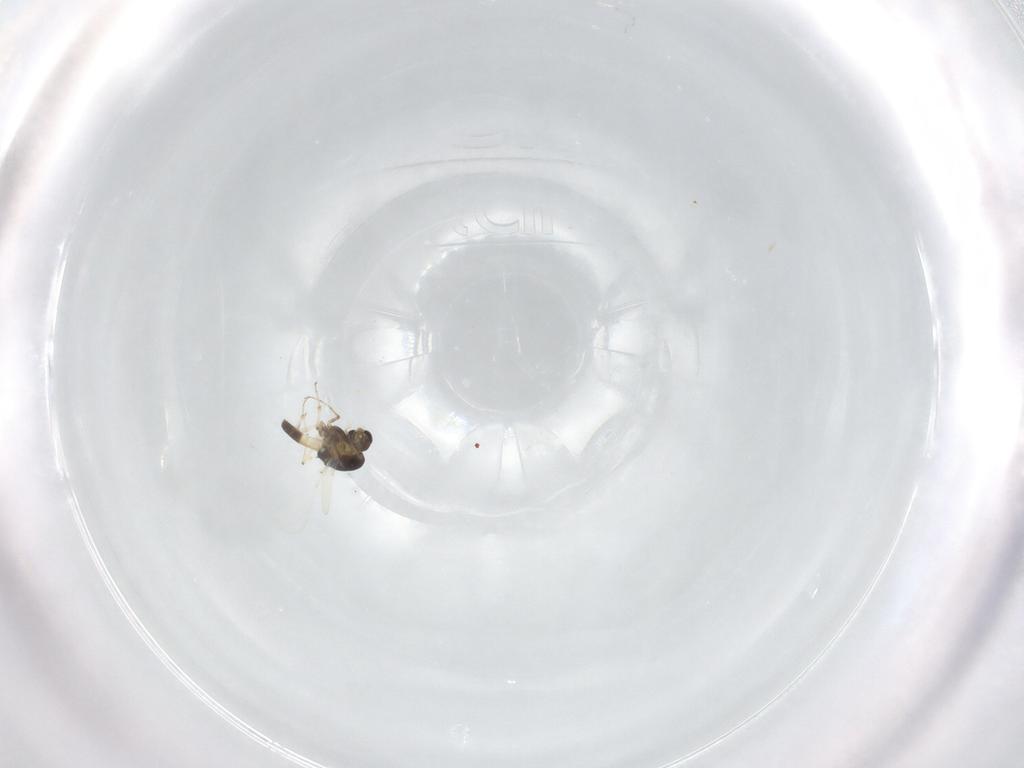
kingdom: Animalia
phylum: Arthropoda
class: Insecta
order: Diptera
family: Chironomidae
